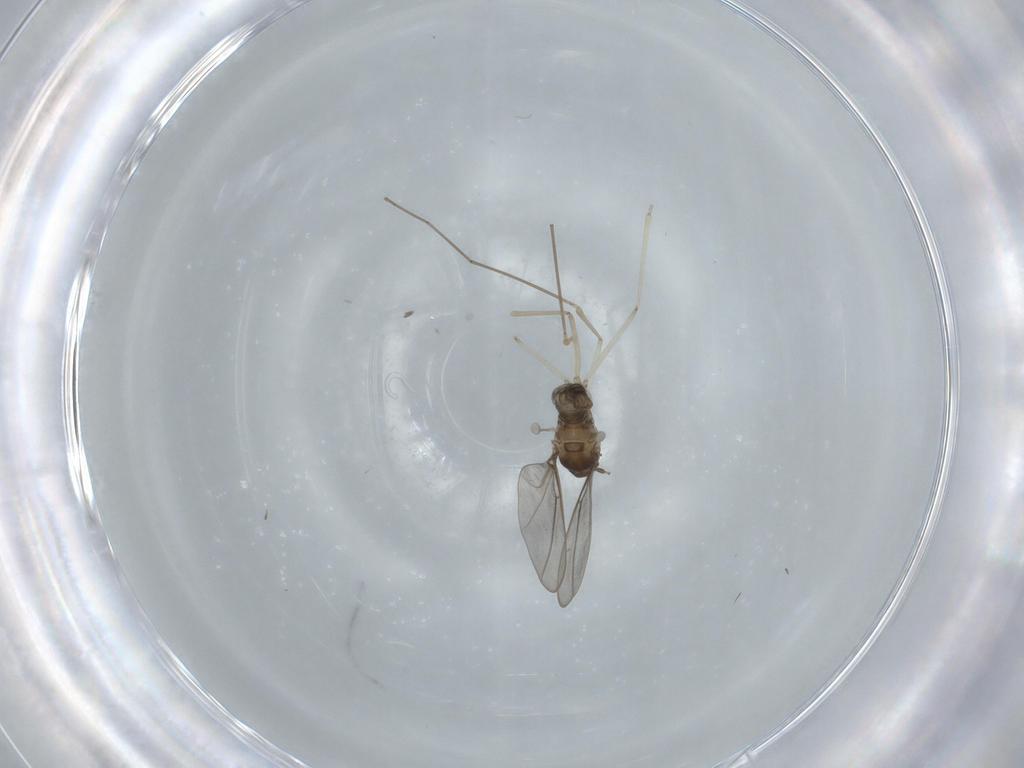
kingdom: Animalia
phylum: Arthropoda
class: Insecta
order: Diptera
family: Cecidomyiidae
